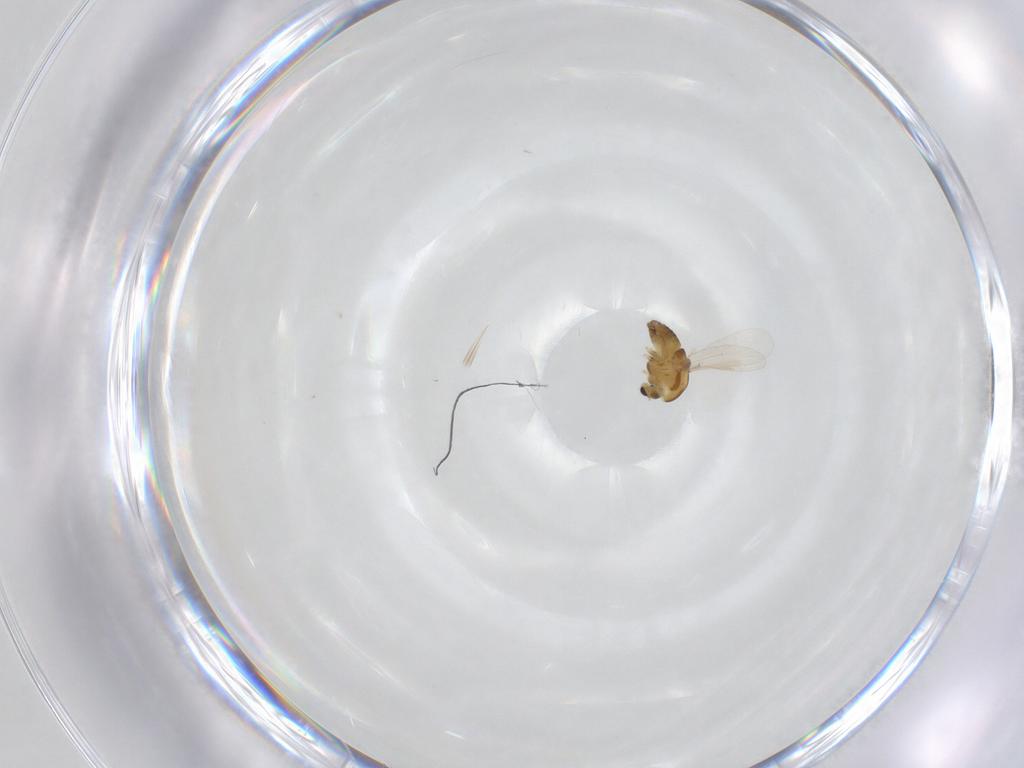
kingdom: Animalia
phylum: Arthropoda
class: Insecta
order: Diptera
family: Chironomidae
